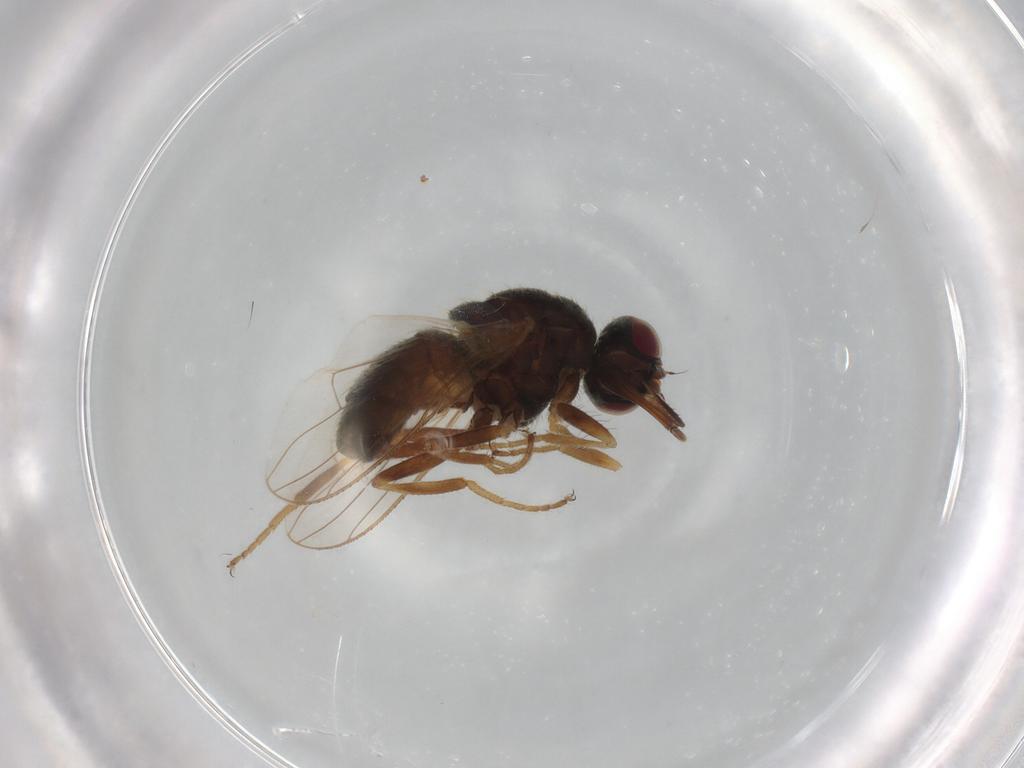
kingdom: Animalia
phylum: Arthropoda
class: Insecta
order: Diptera
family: Muscidae
